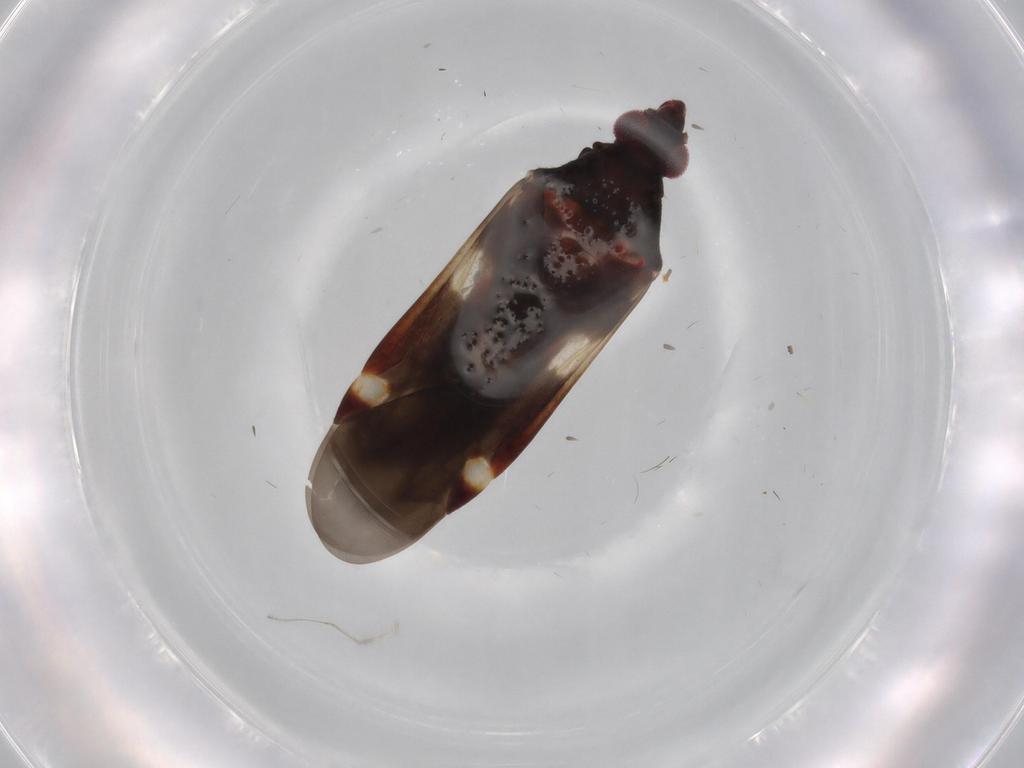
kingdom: Animalia
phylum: Arthropoda
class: Insecta
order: Hemiptera
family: Miridae
